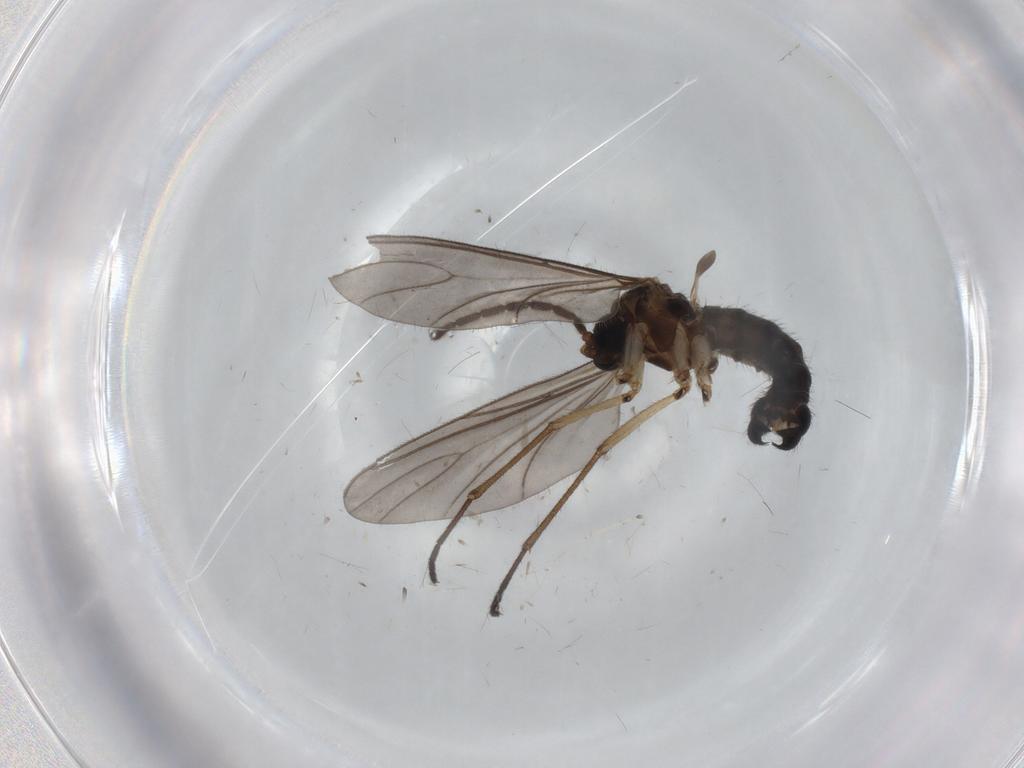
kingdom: Animalia
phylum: Arthropoda
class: Insecta
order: Diptera
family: Sciaridae
